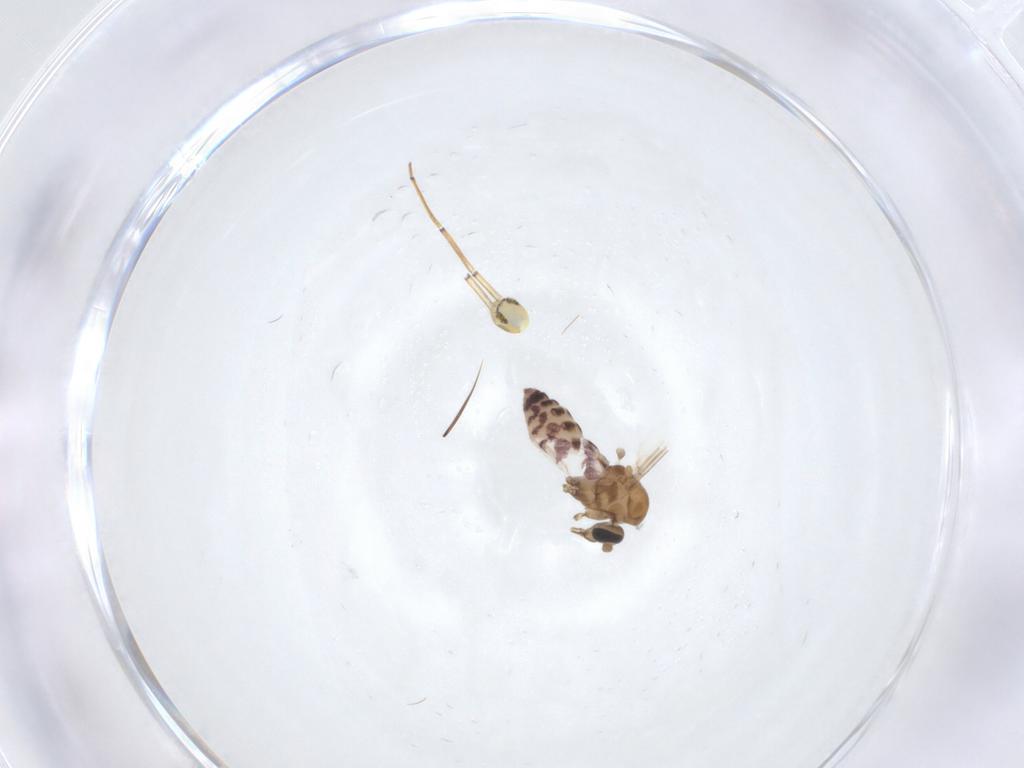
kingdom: Animalia
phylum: Arthropoda
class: Insecta
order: Diptera
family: Ceratopogonidae
